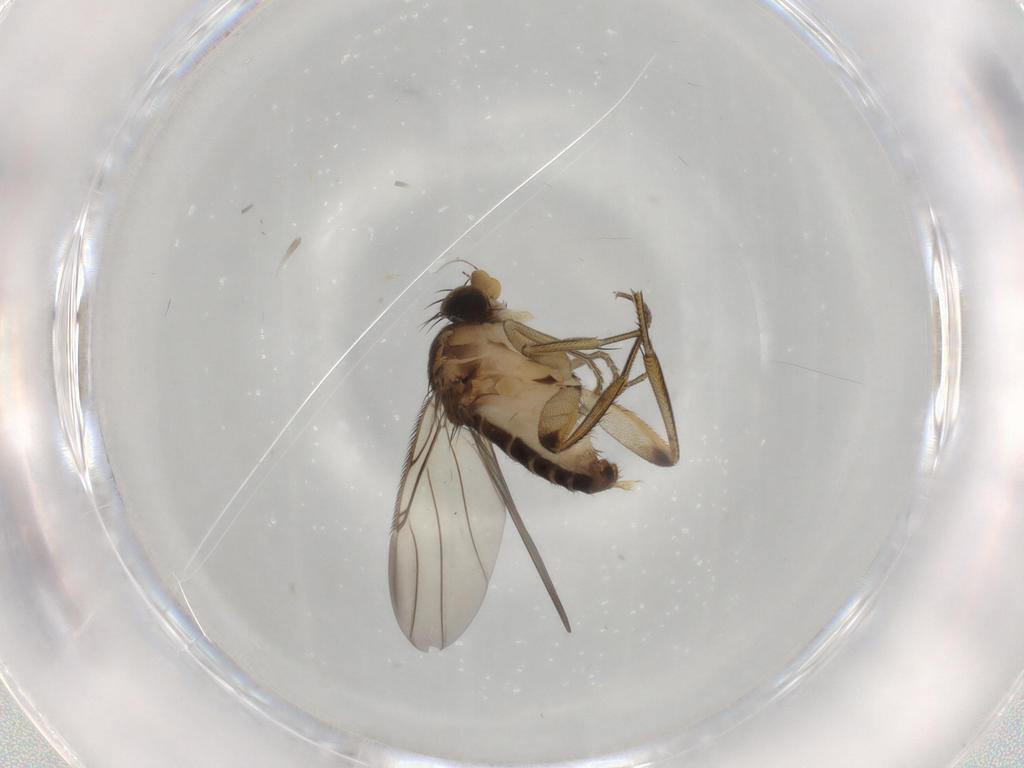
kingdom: Animalia
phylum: Arthropoda
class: Insecta
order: Diptera
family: Phoridae
